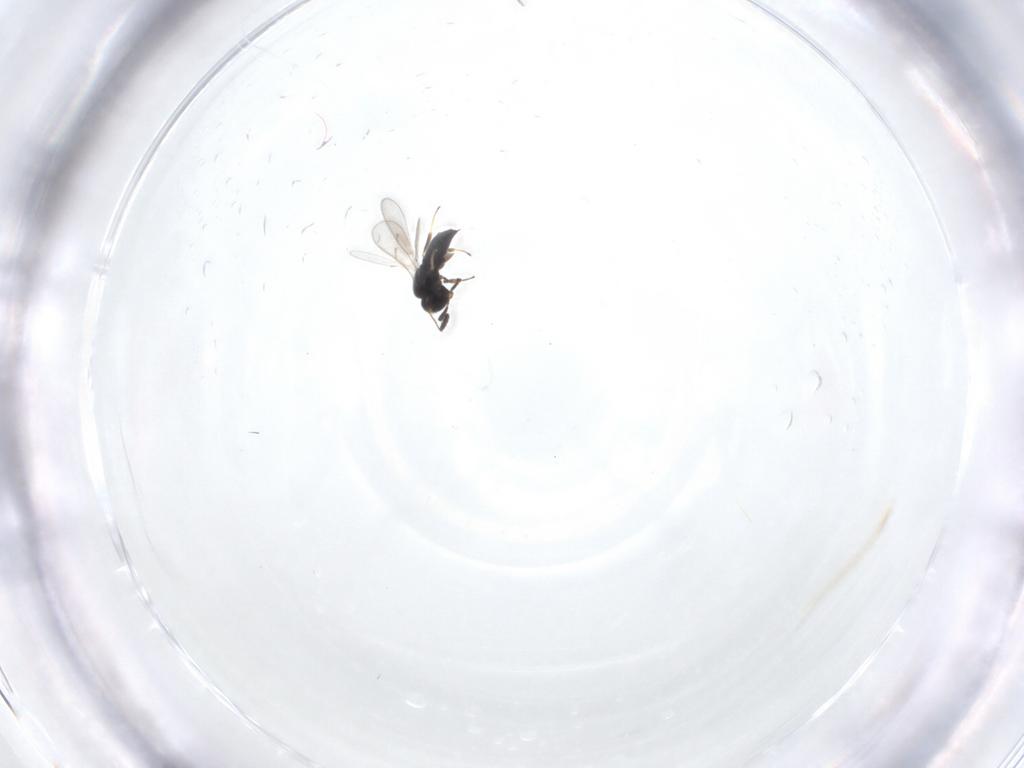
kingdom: Animalia
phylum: Arthropoda
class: Insecta
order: Hymenoptera
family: Scelionidae
